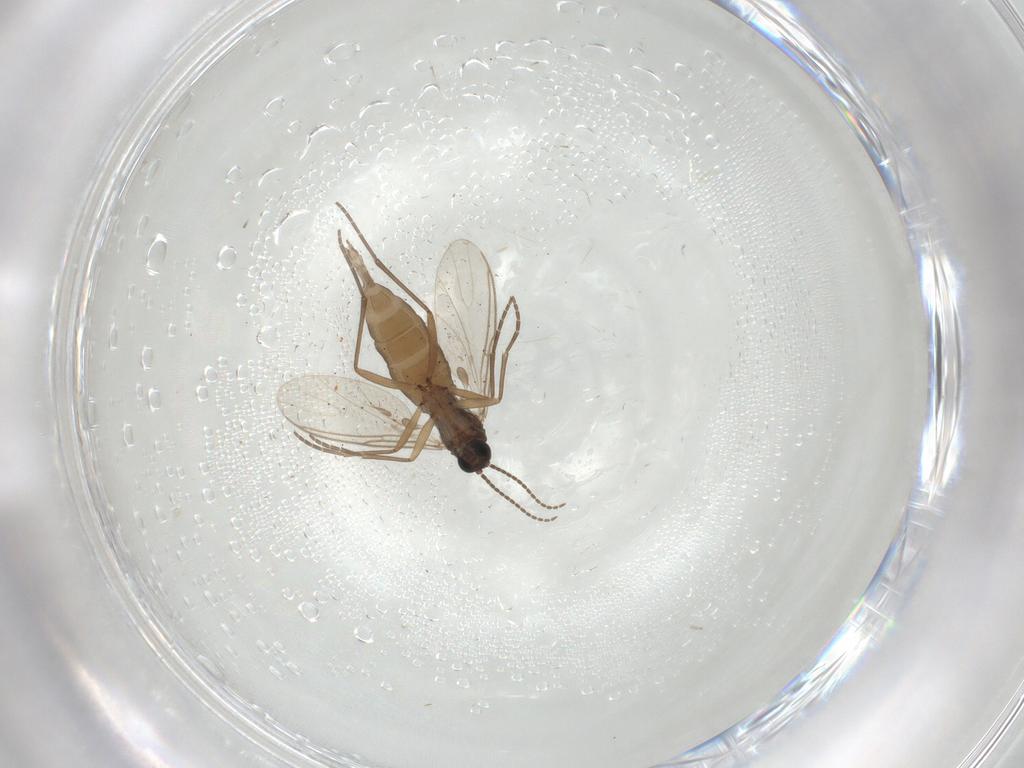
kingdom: Animalia
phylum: Arthropoda
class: Insecta
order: Diptera
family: Sciaridae
